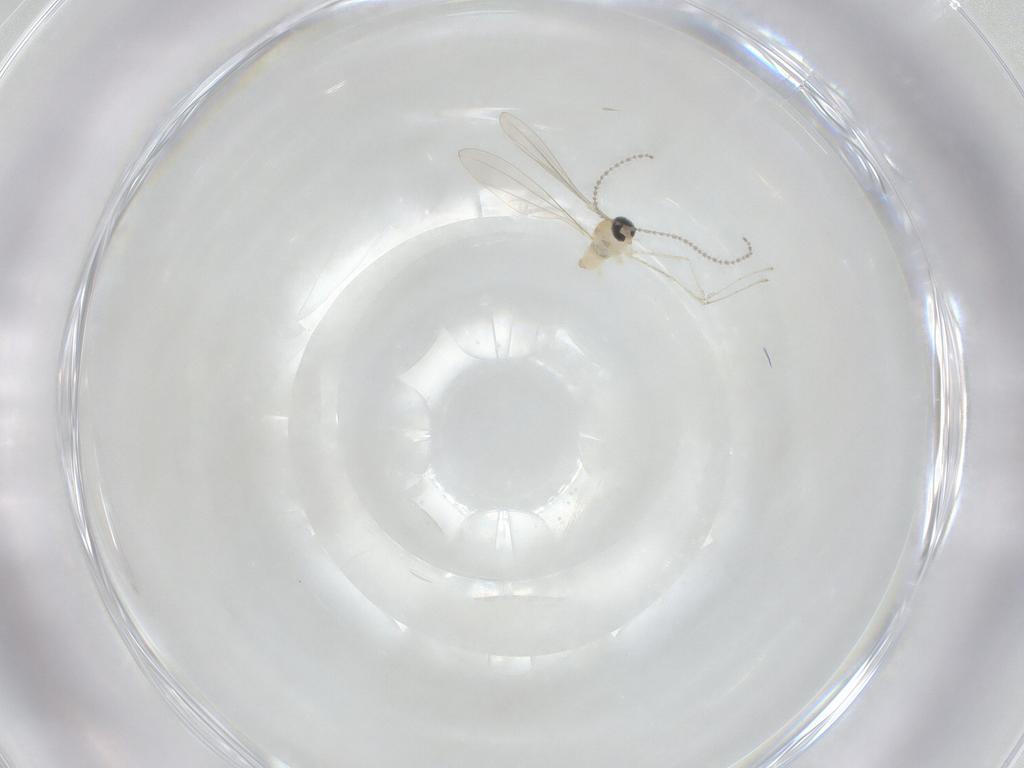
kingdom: Animalia
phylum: Arthropoda
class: Insecta
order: Diptera
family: Cecidomyiidae
